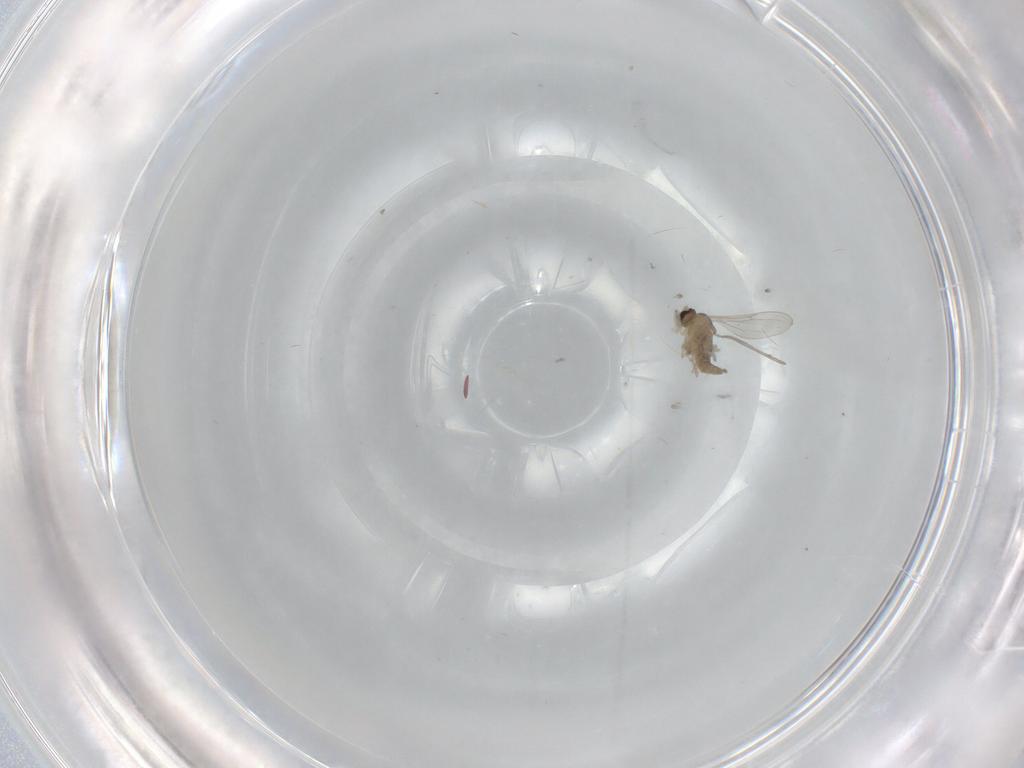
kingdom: Animalia
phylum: Arthropoda
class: Insecta
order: Diptera
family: Cecidomyiidae
